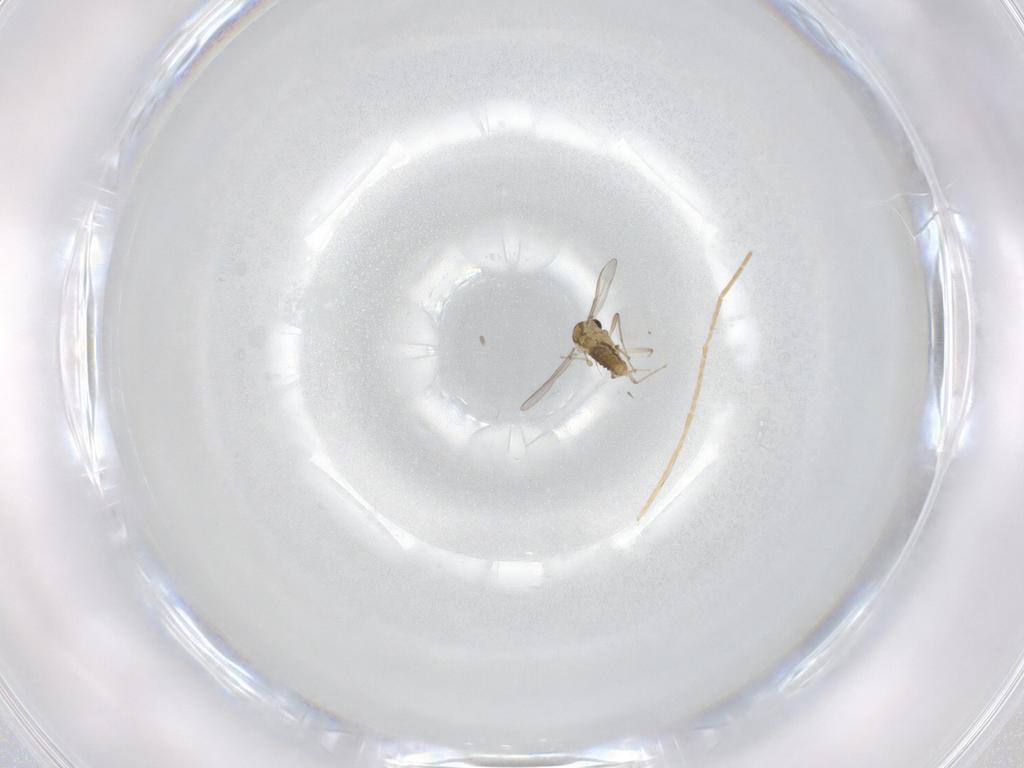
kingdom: Animalia
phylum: Arthropoda
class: Insecta
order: Diptera
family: Chironomidae
